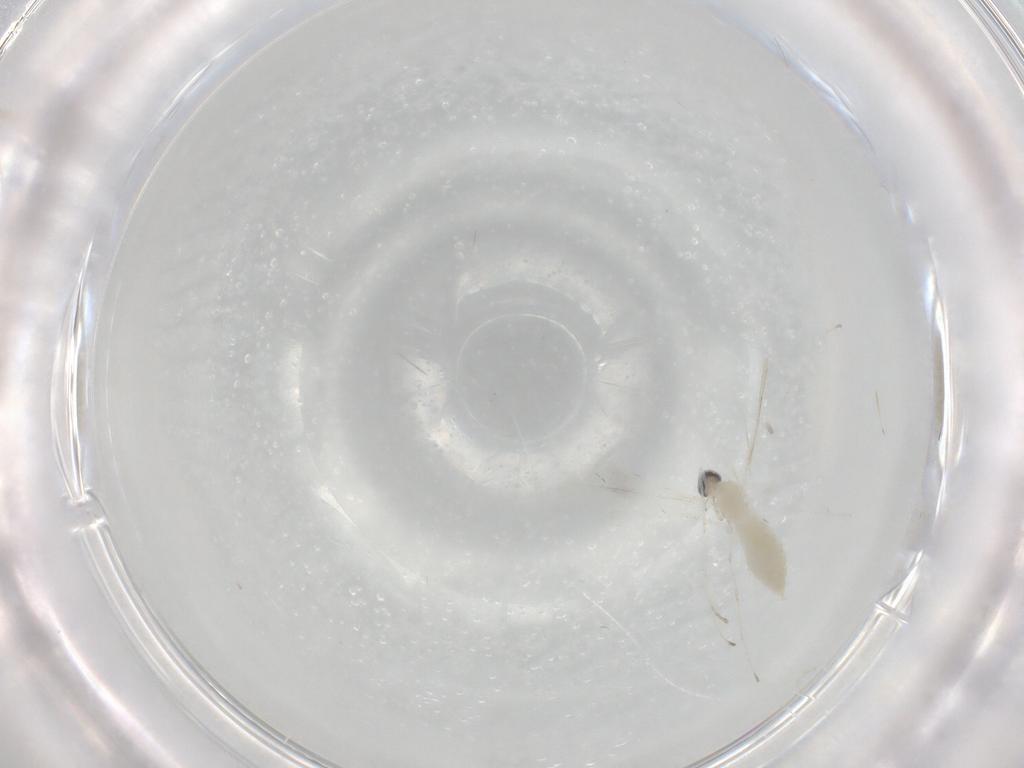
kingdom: Animalia
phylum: Arthropoda
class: Insecta
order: Diptera
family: Cecidomyiidae
